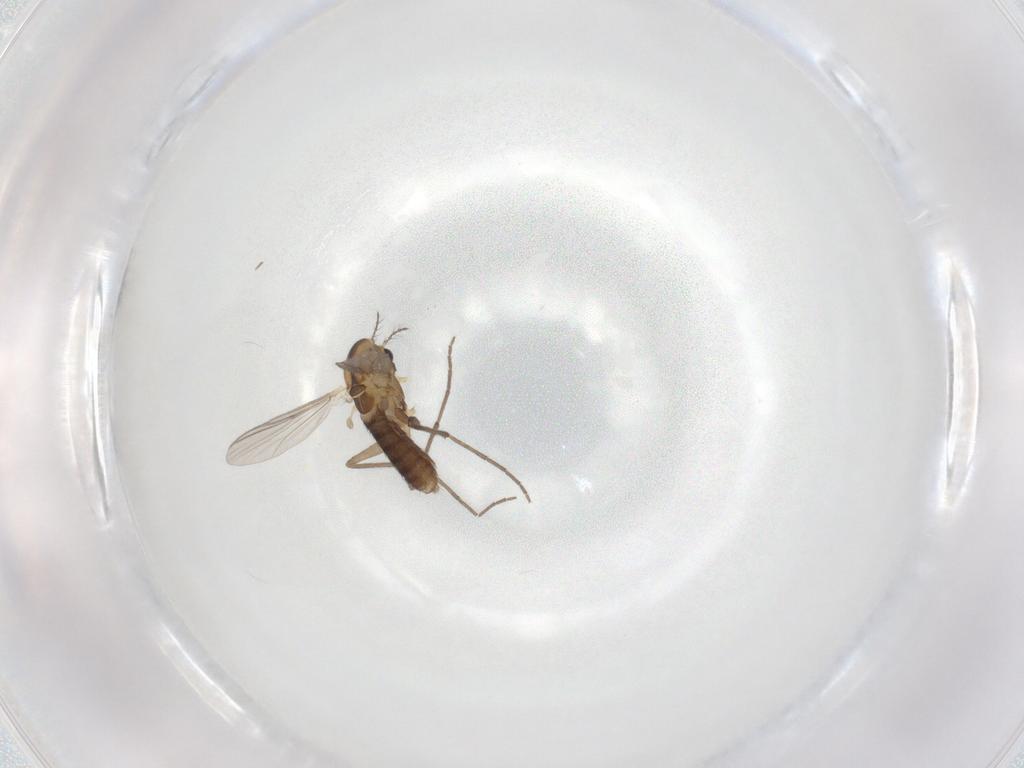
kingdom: Animalia
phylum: Arthropoda
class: Insecta
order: Diptera
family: Chironomidae
